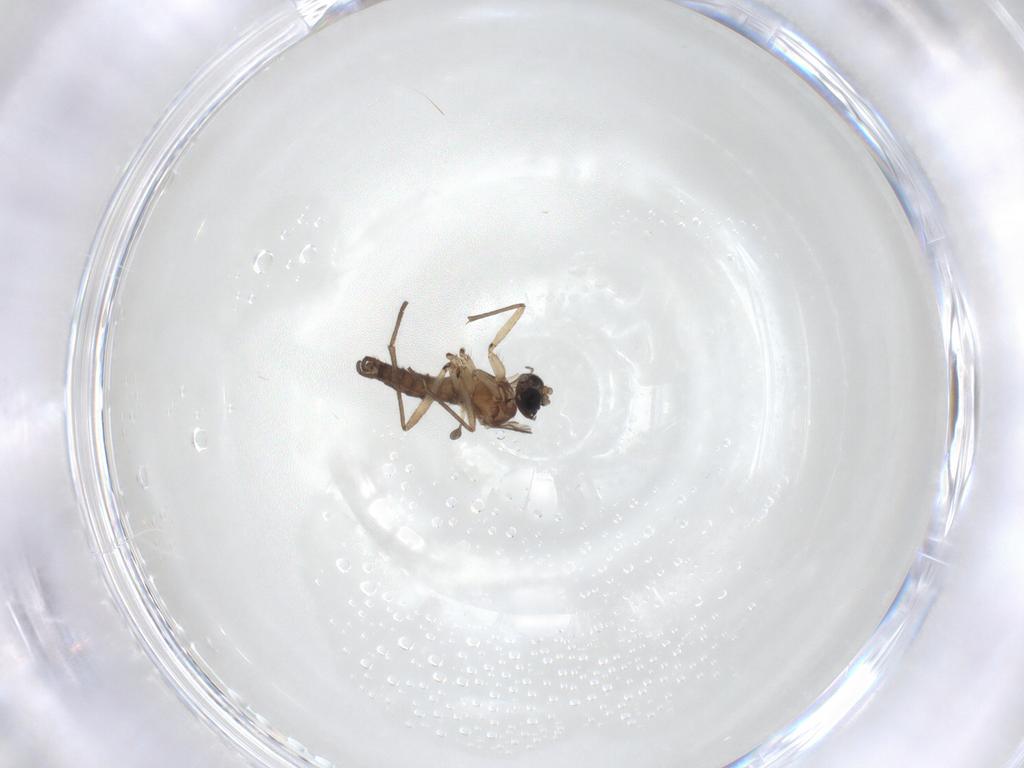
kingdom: Animalia
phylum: Arthropoda
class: Insecta
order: Diptera
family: Sciaridae
